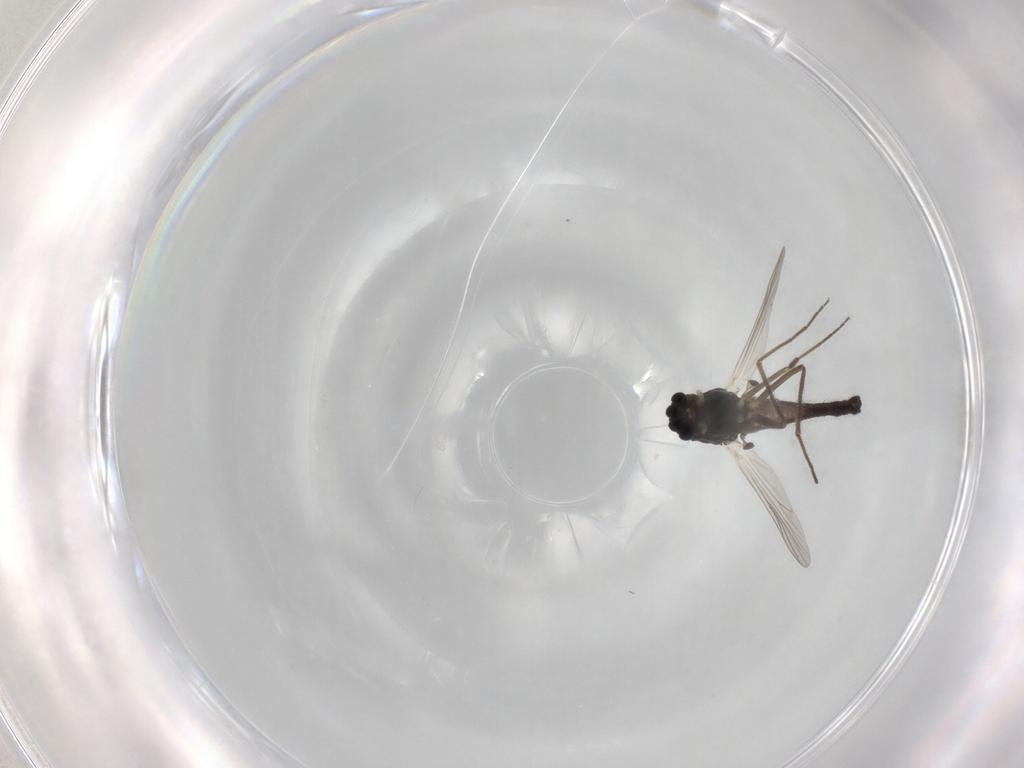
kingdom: Animalia
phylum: Arthropoda
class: Insecta
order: Diptera
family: Chironomidae
